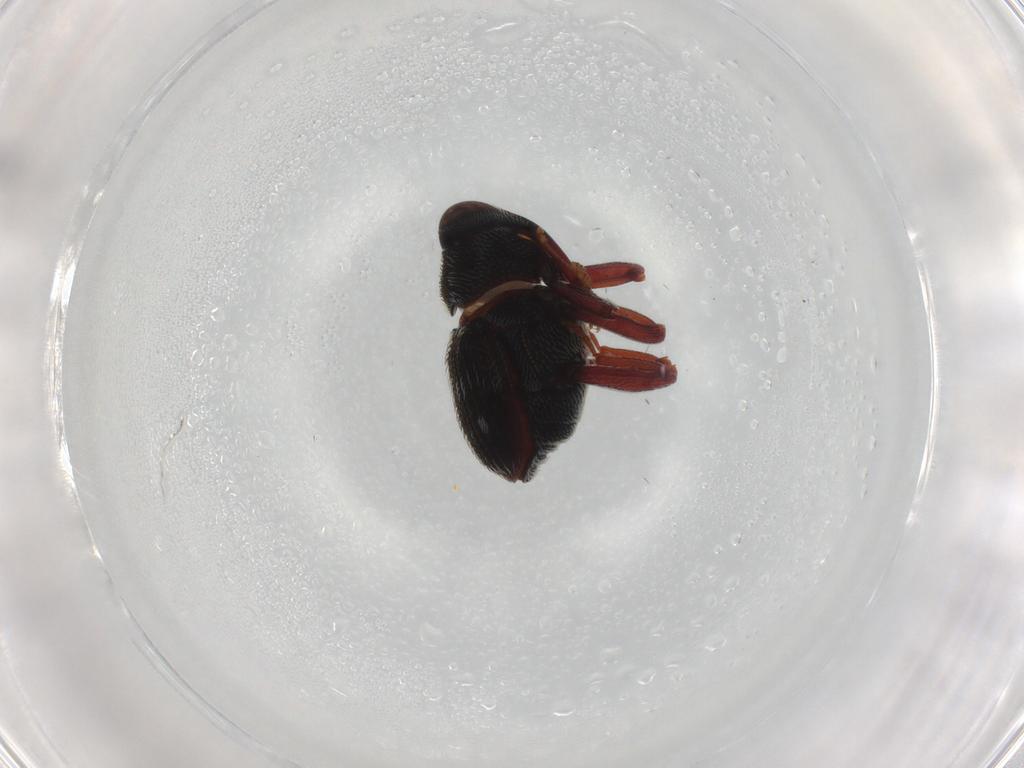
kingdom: Animalia
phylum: Arthropoda
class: Insecta
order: Coleoptera
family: Curculionidae
